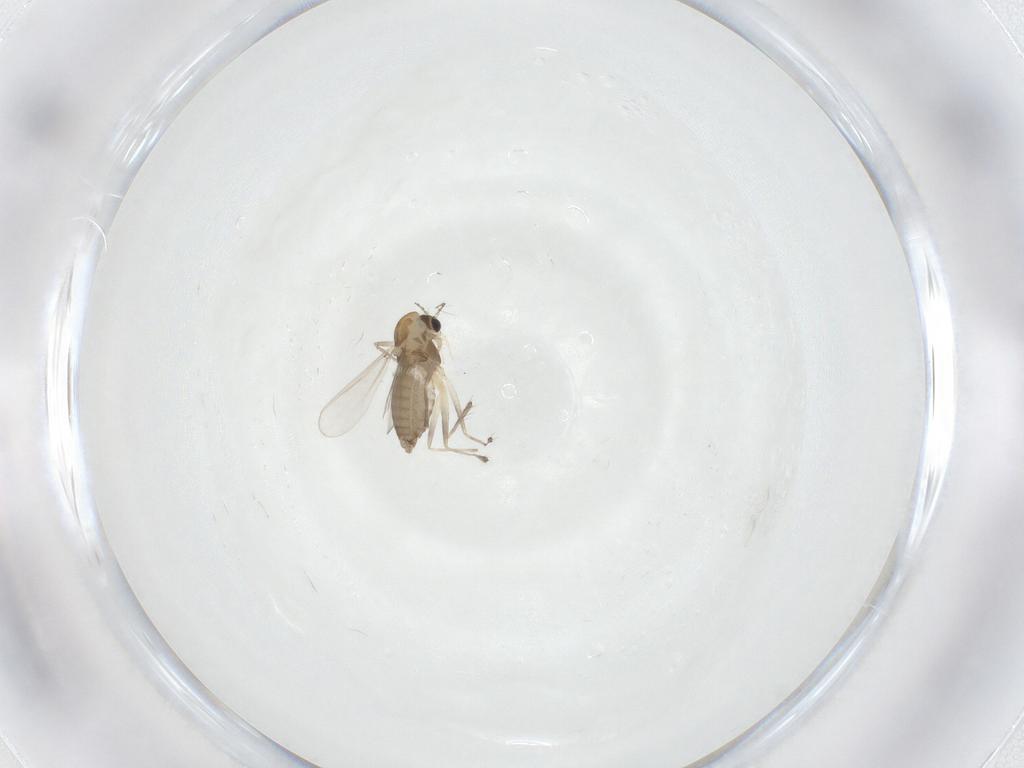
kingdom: Animalia
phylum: Arthropoda
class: Insecta
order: Diptera
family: Chironomidae
